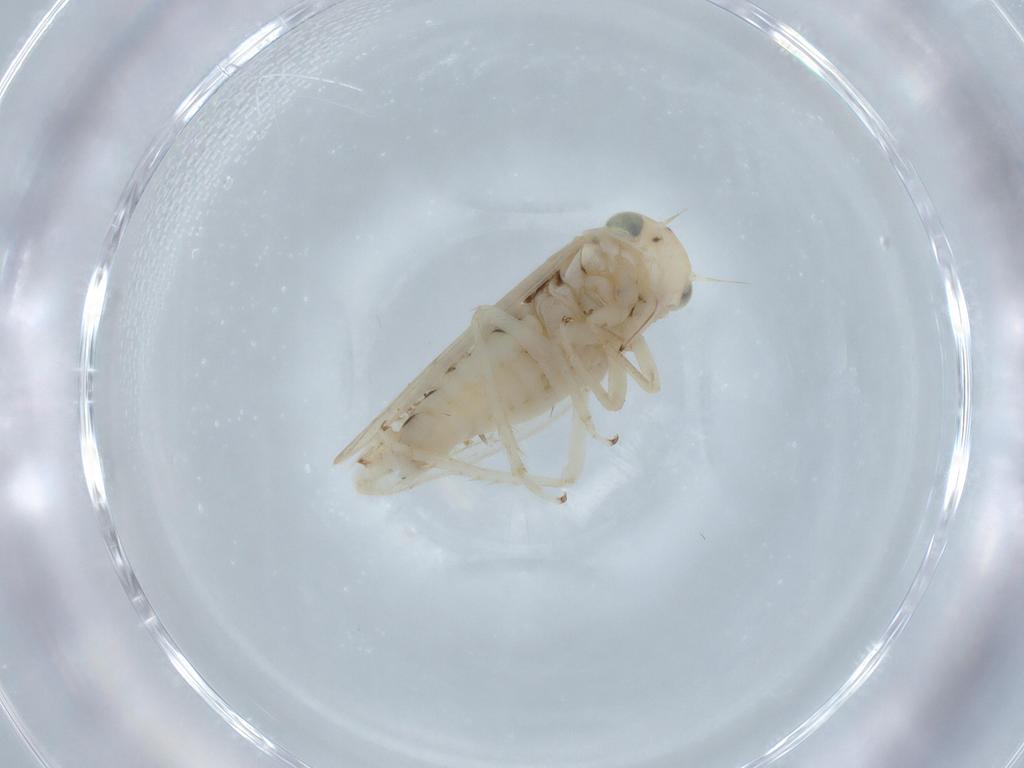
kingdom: Animalia
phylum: Arthropoda
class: Insecta
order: Hemiptera
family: Cicadellidae
